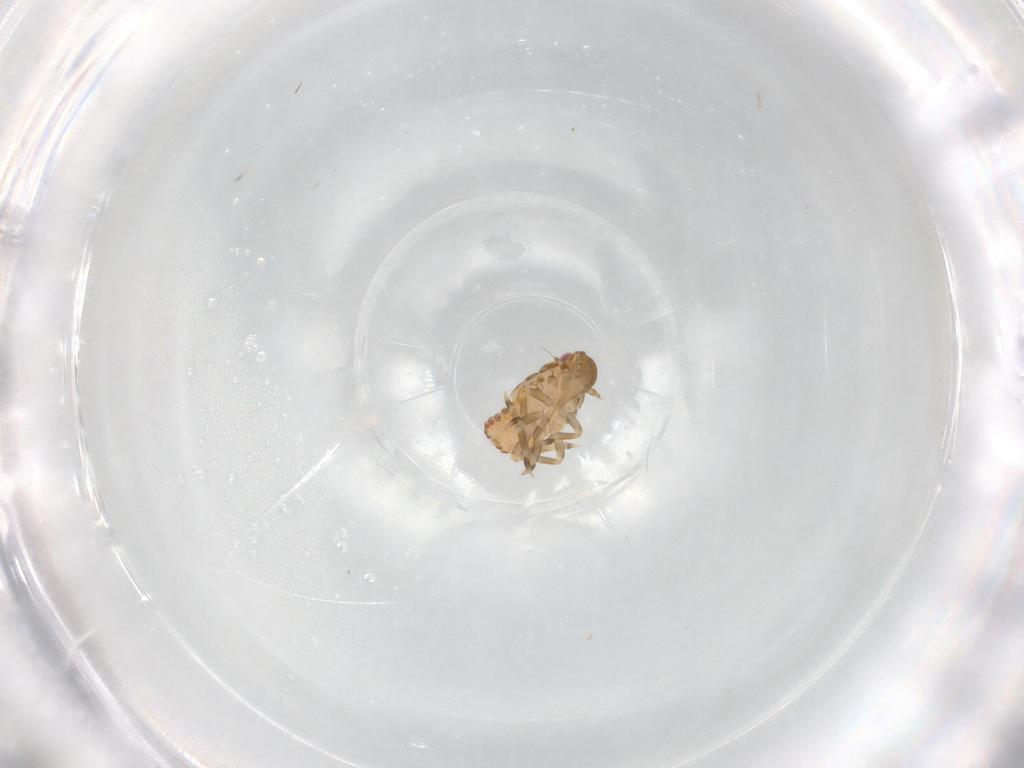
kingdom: Animalia
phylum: Arthropoda
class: Insecta
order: Hemiptera
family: Flatidae
